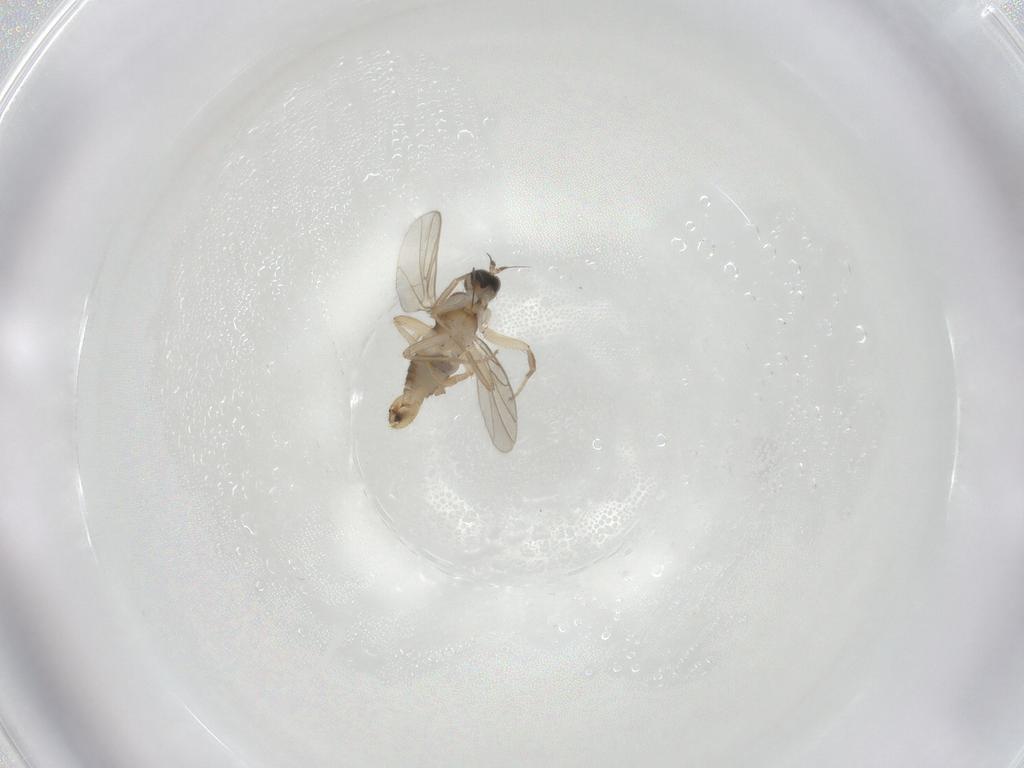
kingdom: Animalia
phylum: Arthropoda
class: Insecta
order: Diptera
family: Hybotidae
